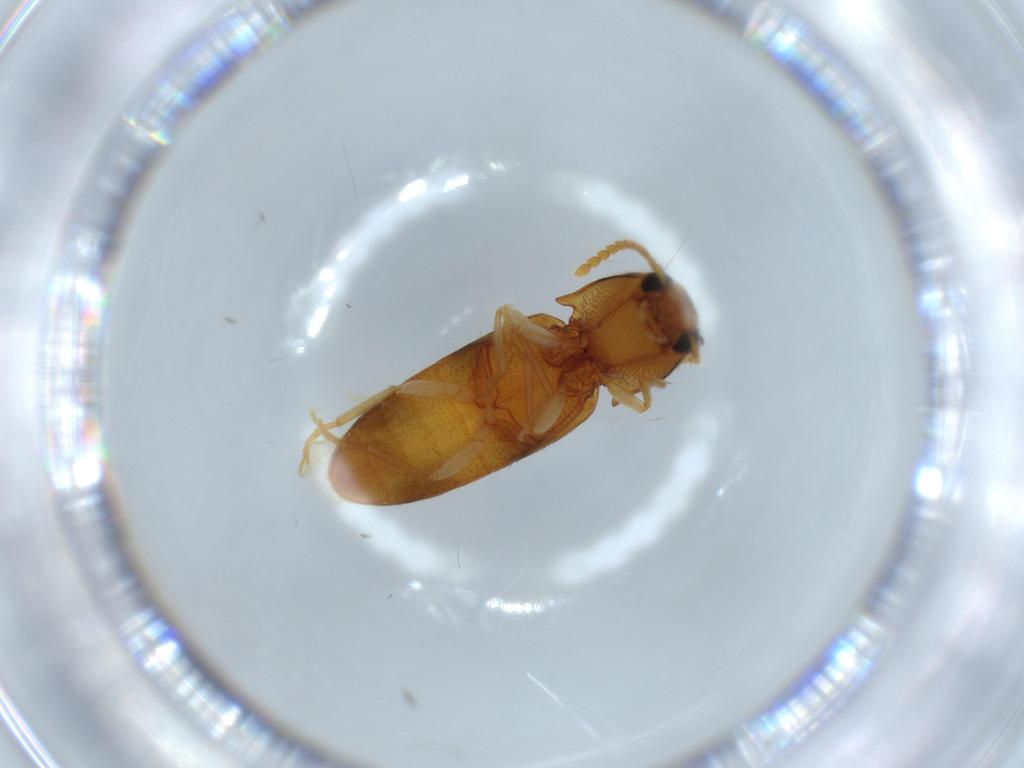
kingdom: Animalia
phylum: Arthropoda
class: Insecta
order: Coleoptera
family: Elateridae
